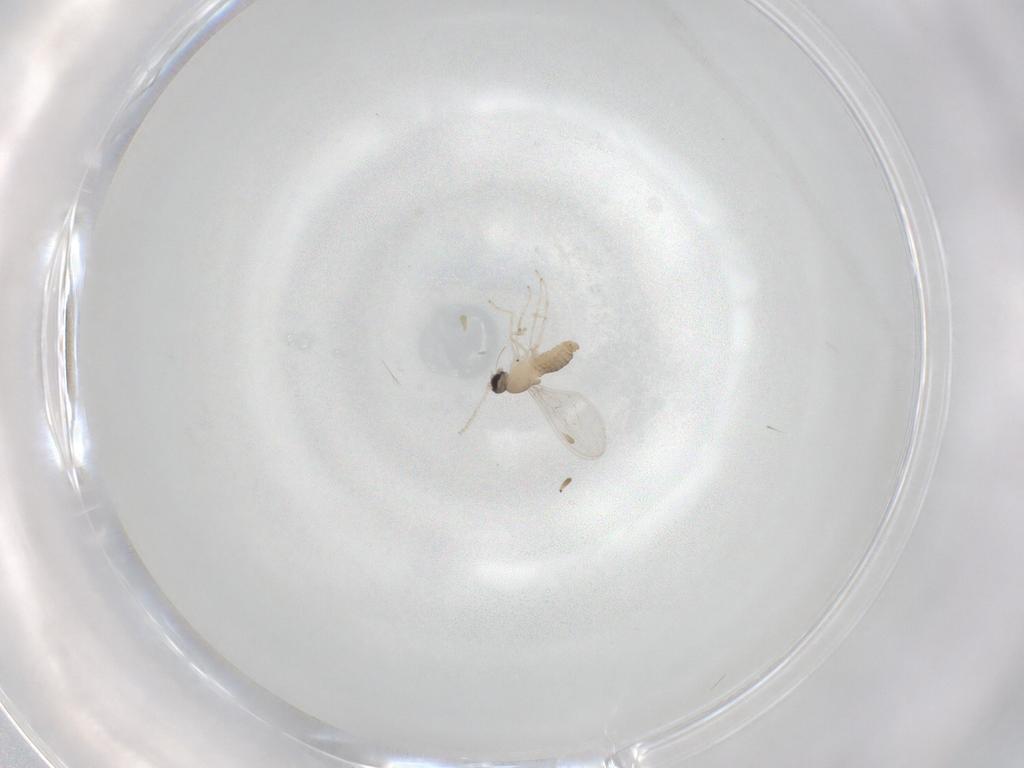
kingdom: Animalia
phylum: Arthropoda
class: Insecta
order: Diptera
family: Cecidomyiidae
